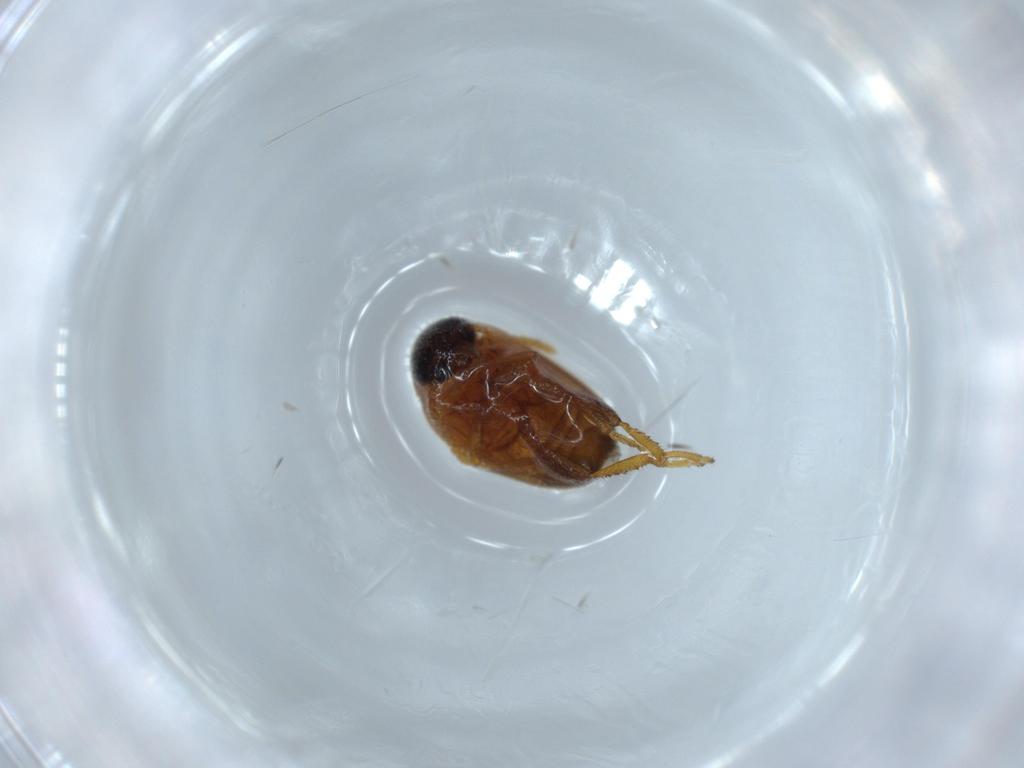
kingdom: Animalia
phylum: Arthropoda
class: Insecta
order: Coleoptera
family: Aderidae
